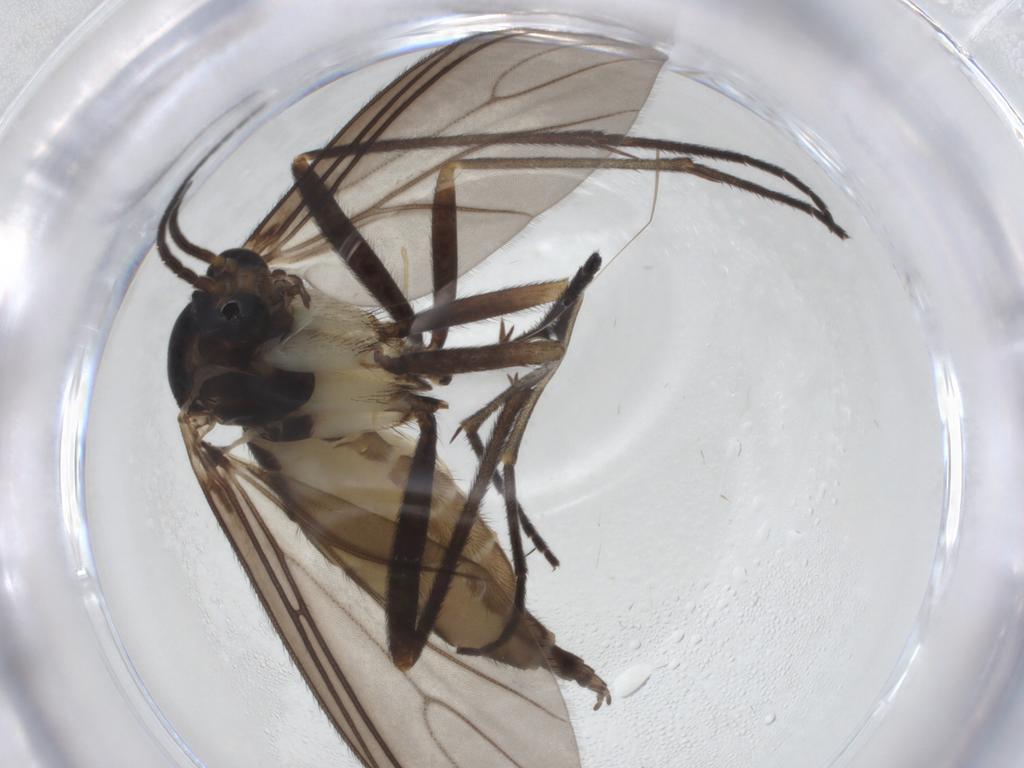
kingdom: Animalia
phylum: Arthropoda
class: Insecta
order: Diptera
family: Sciaridae
